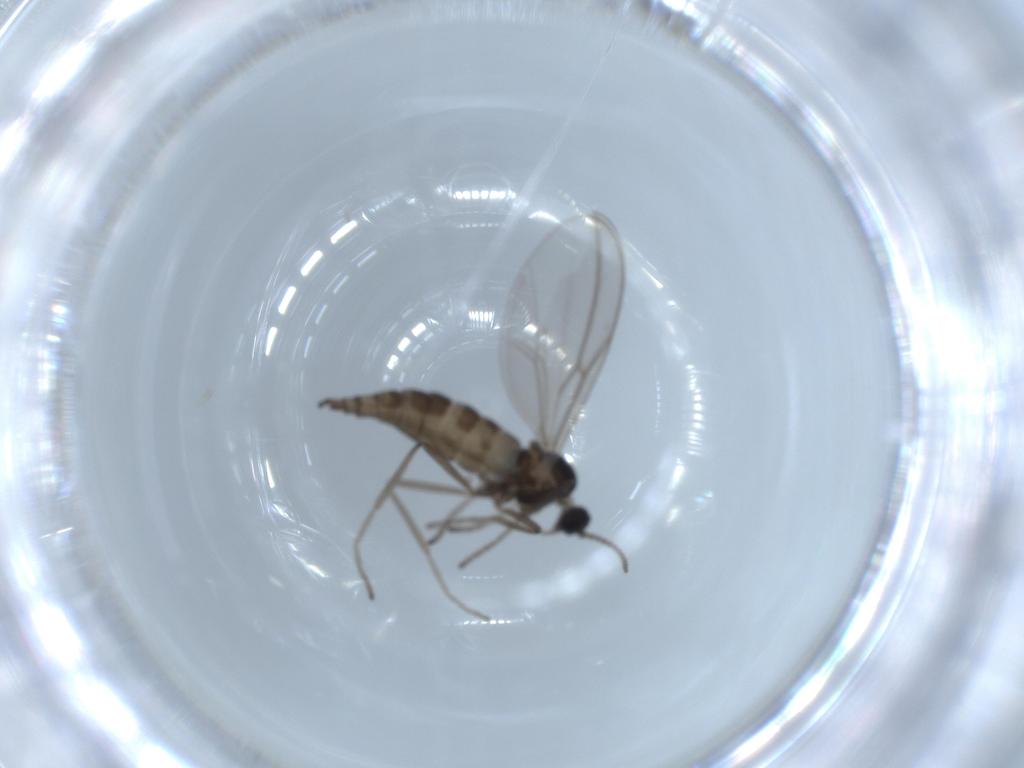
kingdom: Animalia
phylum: Arthropoda
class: Insecta
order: Diptera
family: Cecidomyiidae
